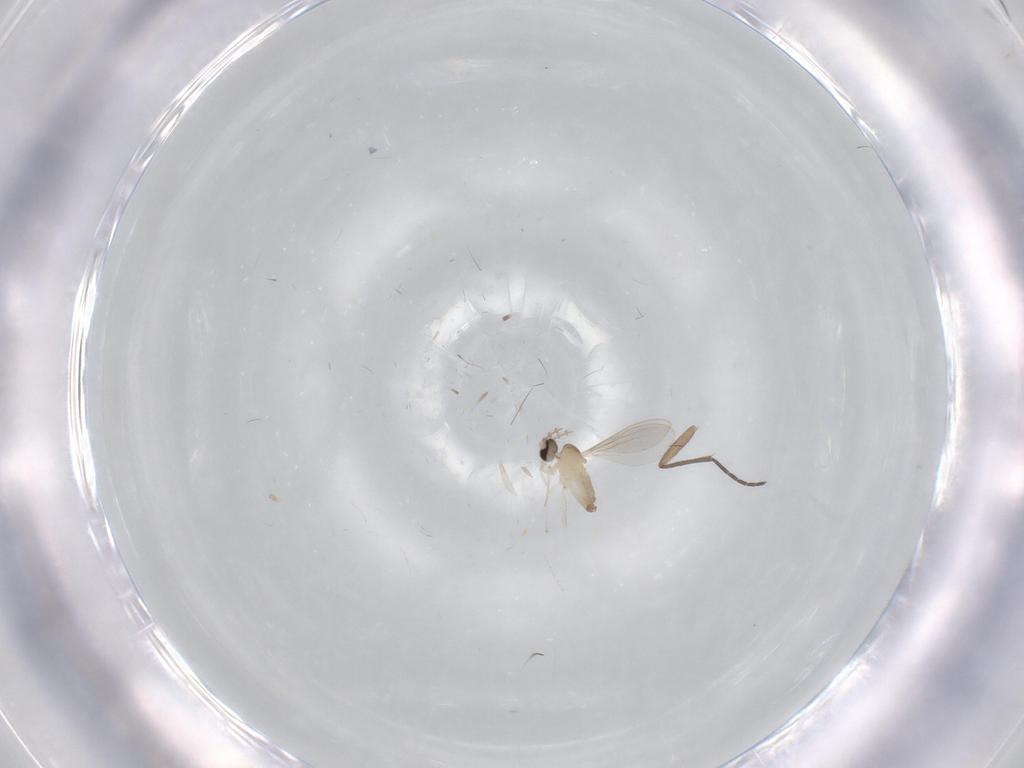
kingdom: Animalia
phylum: Arthropoda
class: Insecta
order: Diptera
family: Cecidomyiidae
